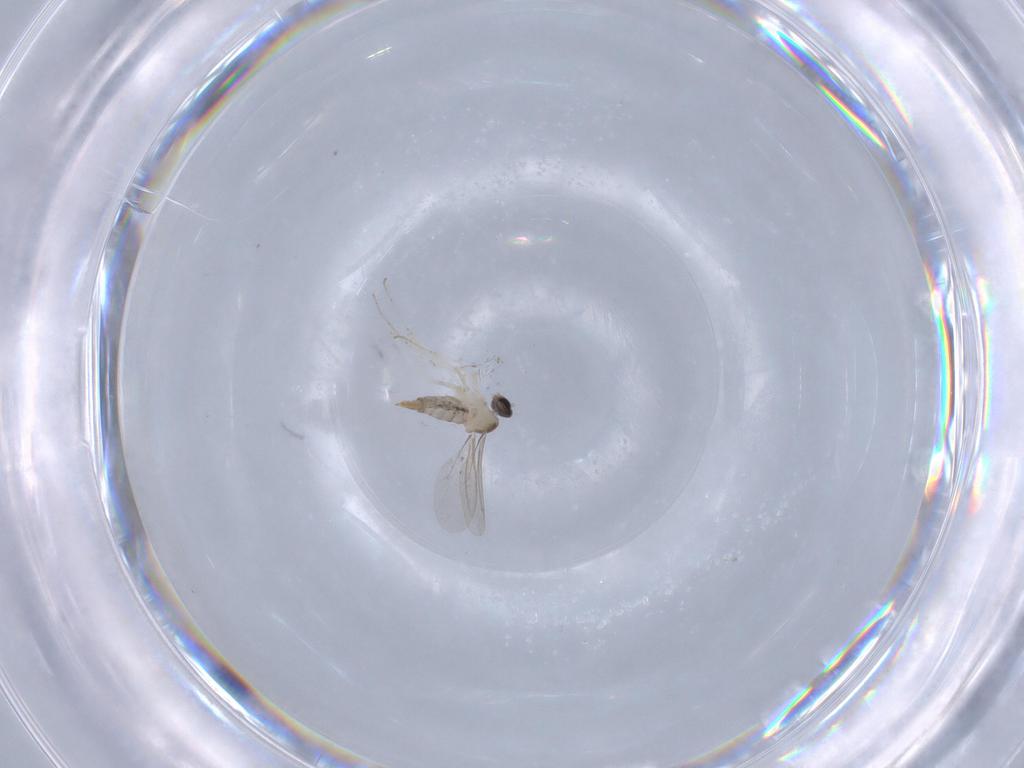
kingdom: Animalia
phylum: Arthropoda
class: Insecta
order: Diptera
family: Cecidomyiidae
